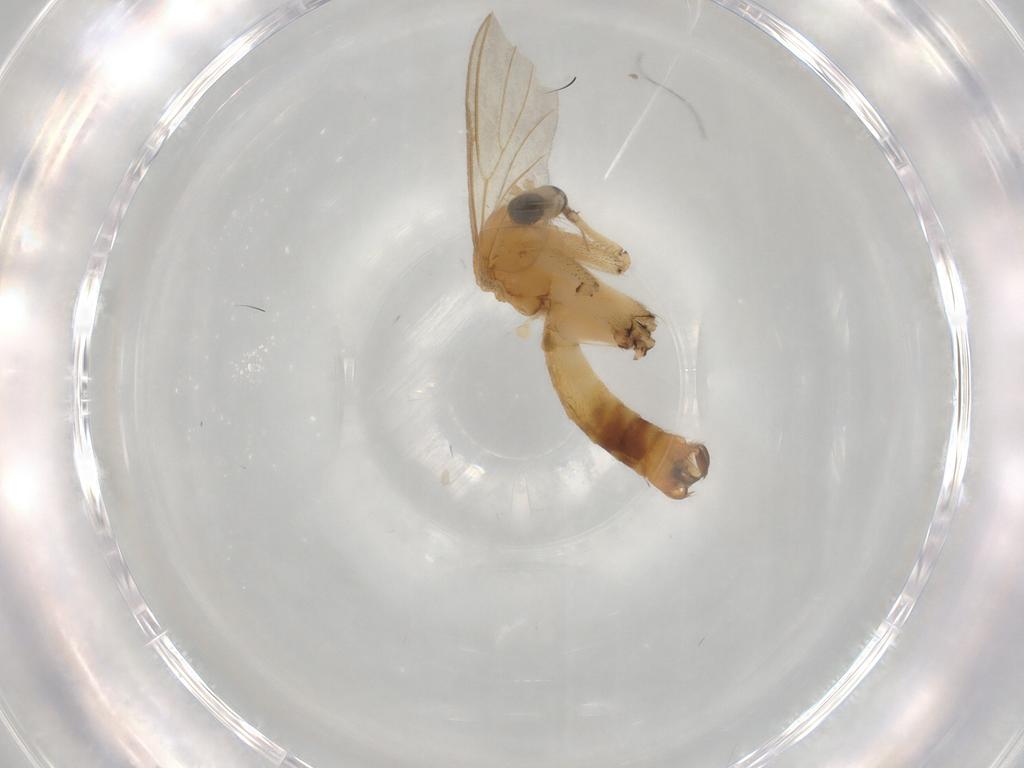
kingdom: Animalia
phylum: Arthropoda
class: Insecta
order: Diptera
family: Mycetophilidae
